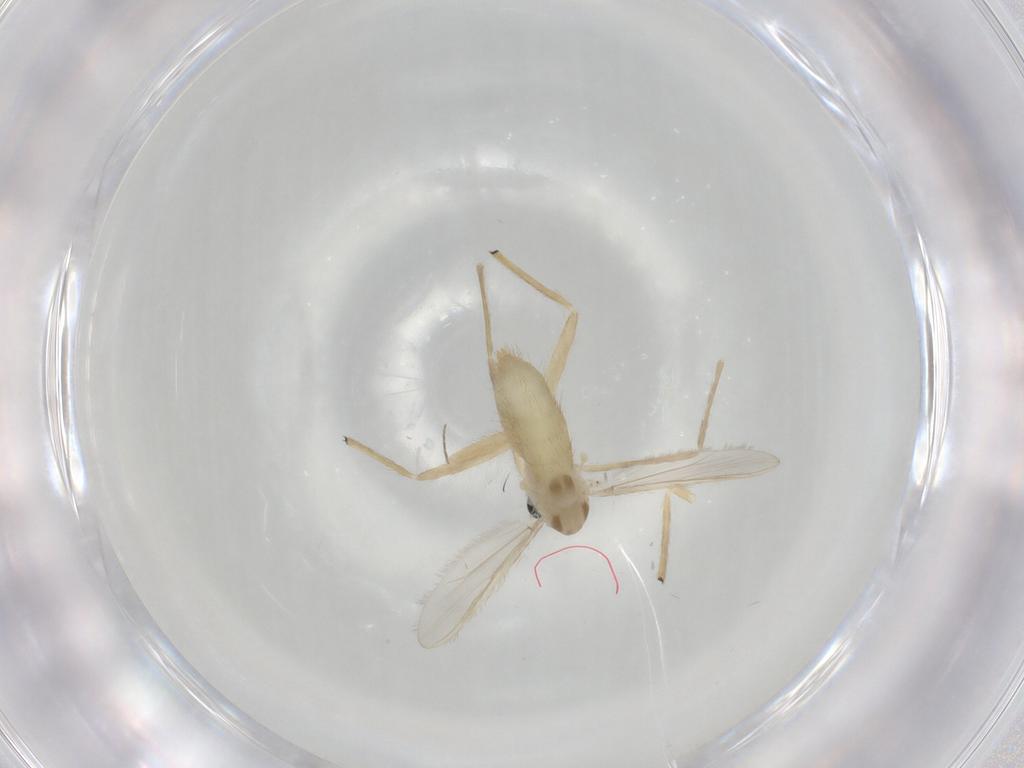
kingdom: Animalia
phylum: Arthropoda
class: Insecta
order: Diptera
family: Phoridae
